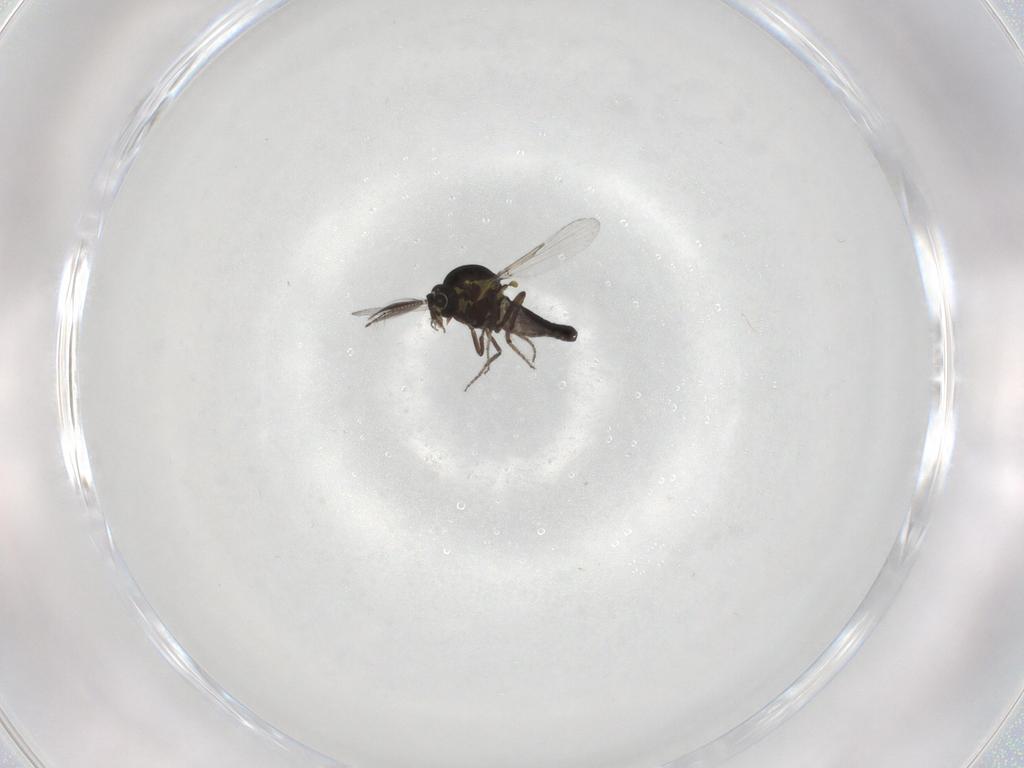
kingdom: Animalia
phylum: Arthropoda
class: Insecta
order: Diptera
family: Ceratopogonidae
